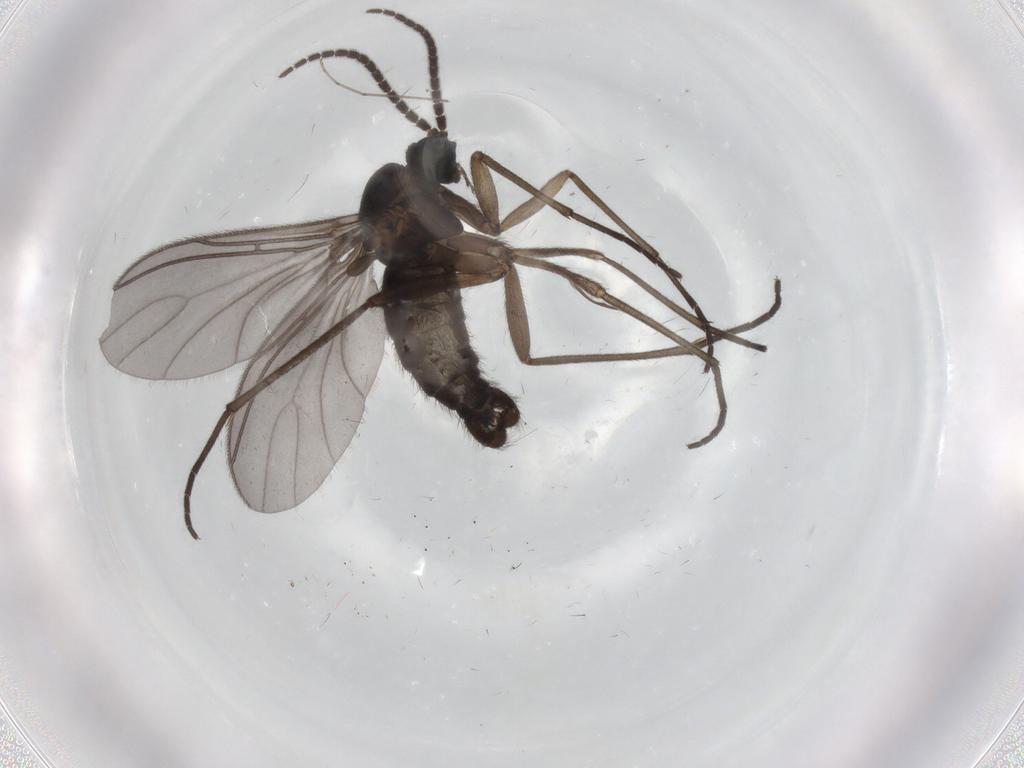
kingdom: Animalia
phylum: Arthropoda
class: Insecta
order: Diptera
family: Sciaridae
